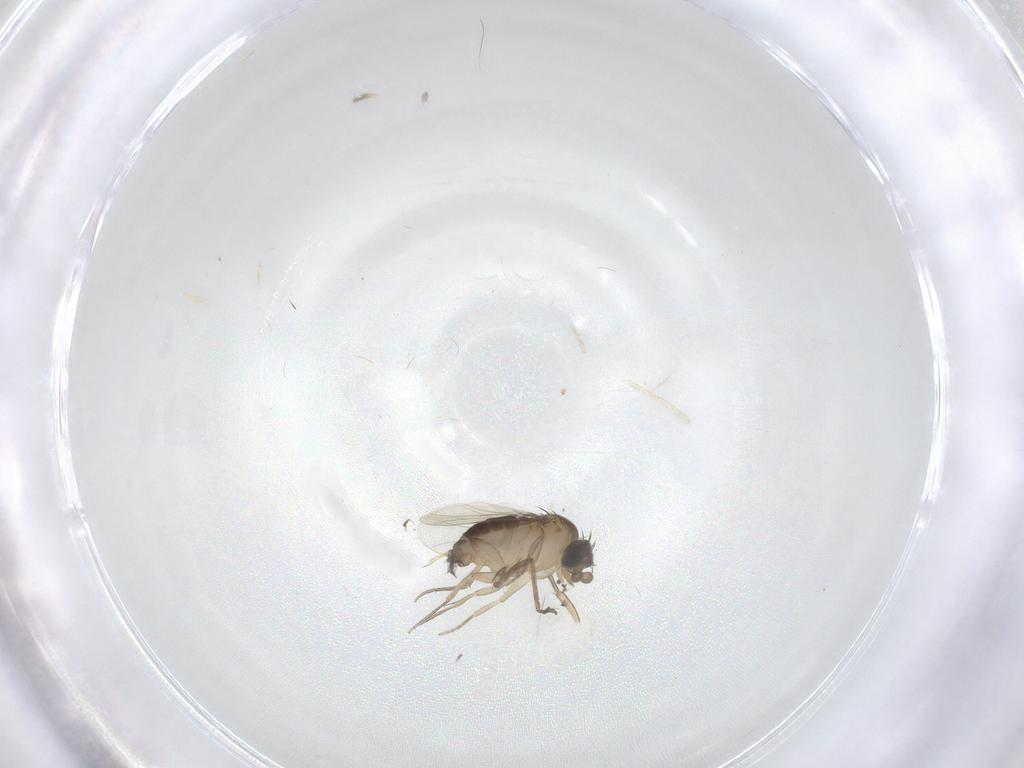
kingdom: Animalia
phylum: Arthropoda
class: Insecta
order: Diptera
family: Phoridae
